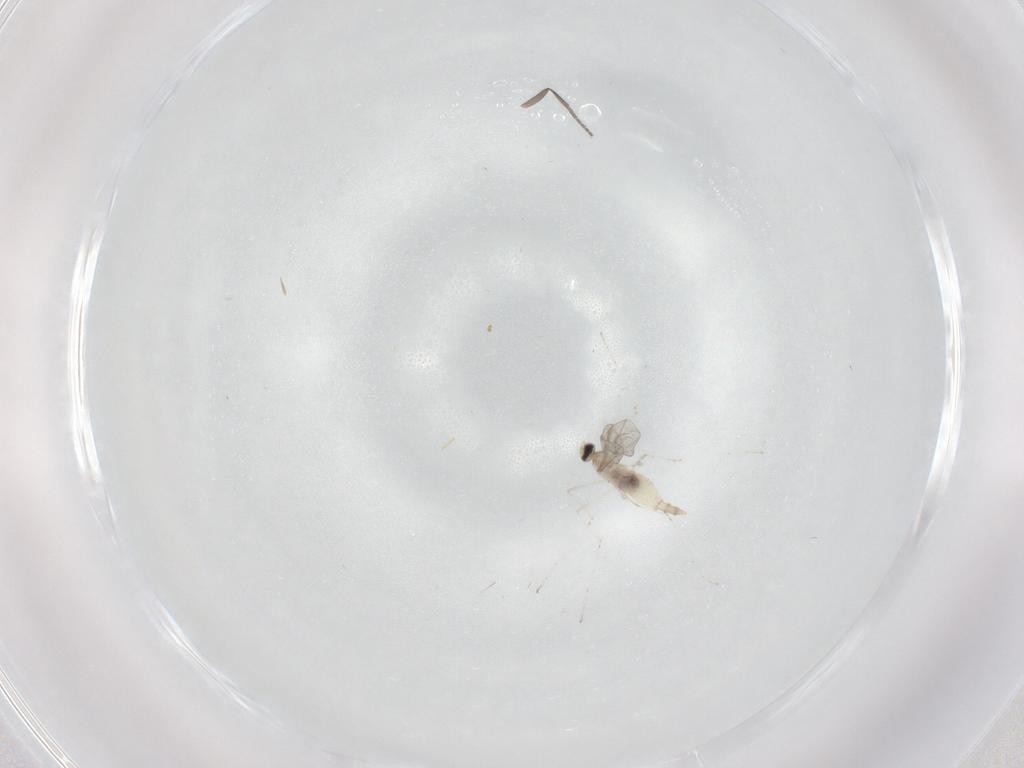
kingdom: Animalia
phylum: Arthropoda
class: Insecta
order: Diptera
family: Phoridae
